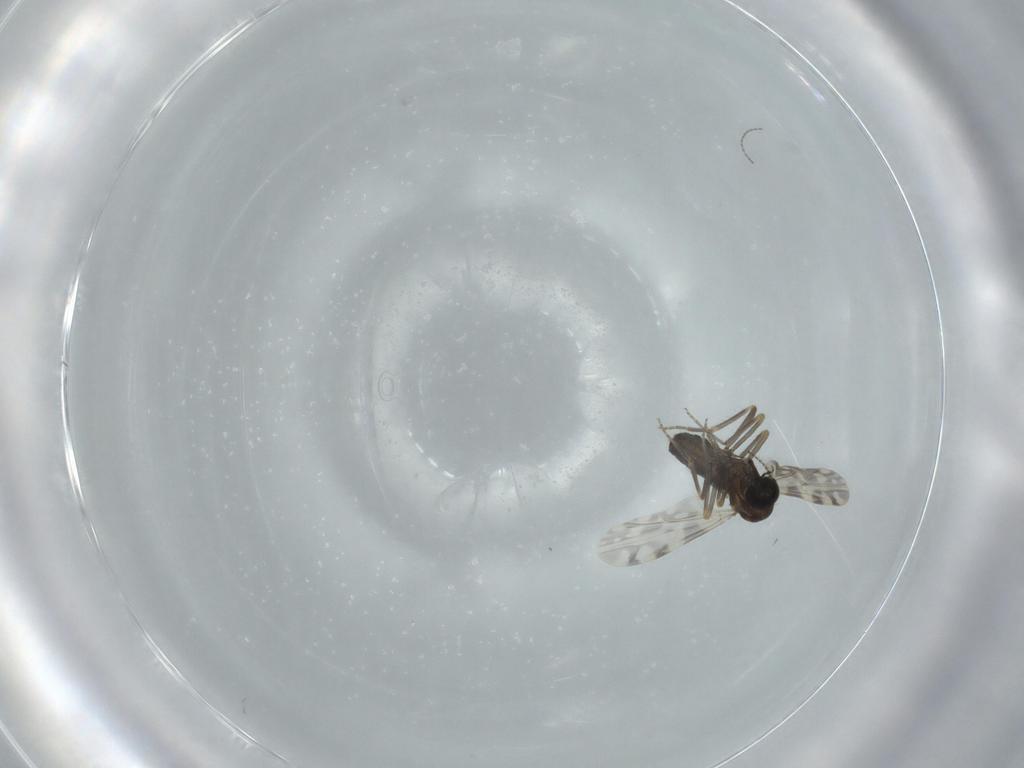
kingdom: Animalia
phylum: Arthropoda
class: Insecta
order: Diptera
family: Ceratopogonidae
